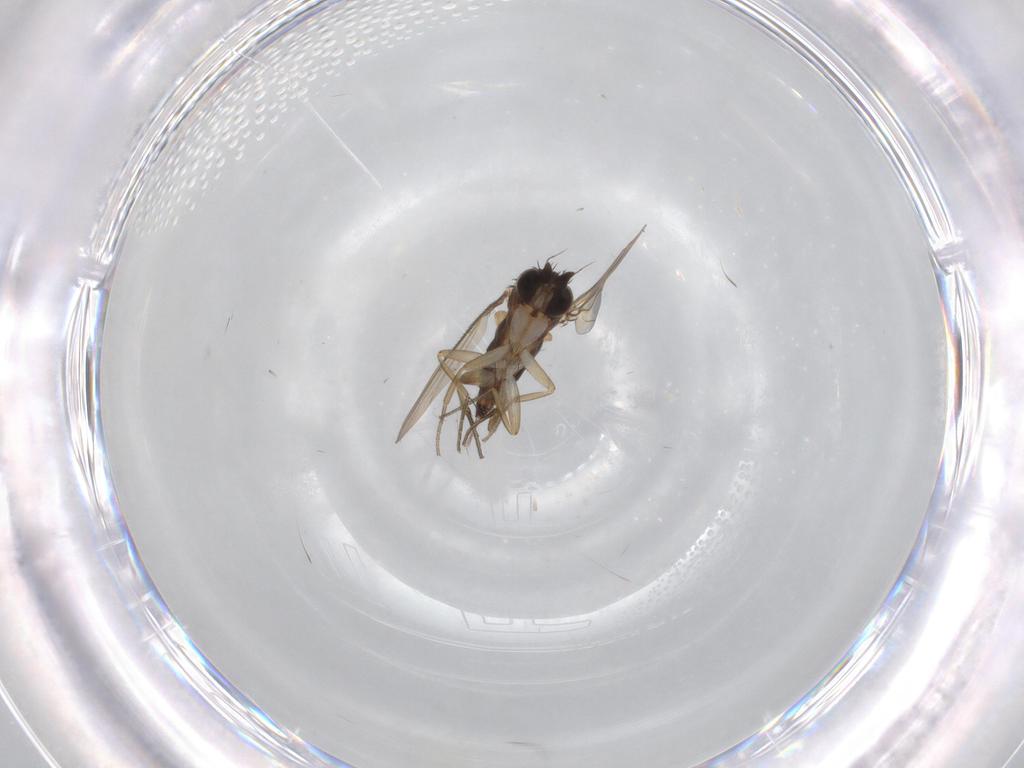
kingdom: Animalia
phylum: Arthropoda
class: Insecta
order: Diptera
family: Phoridae
